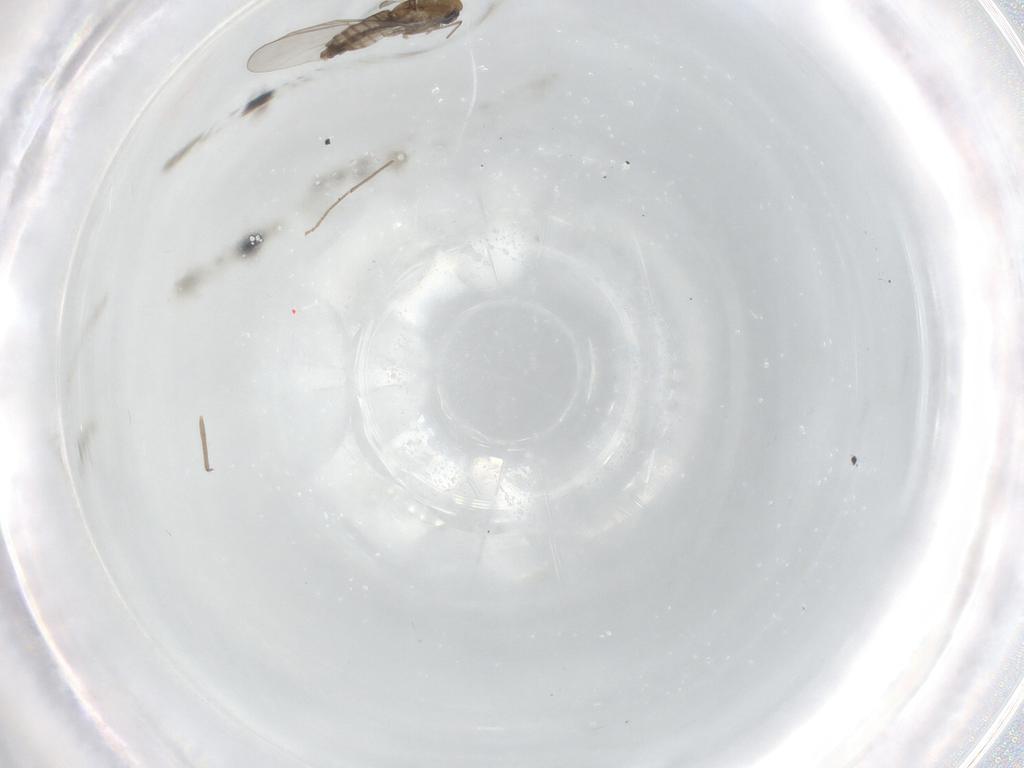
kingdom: Animalia
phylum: Arthropoda
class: Insecta
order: Diptera
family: Chironomidae
